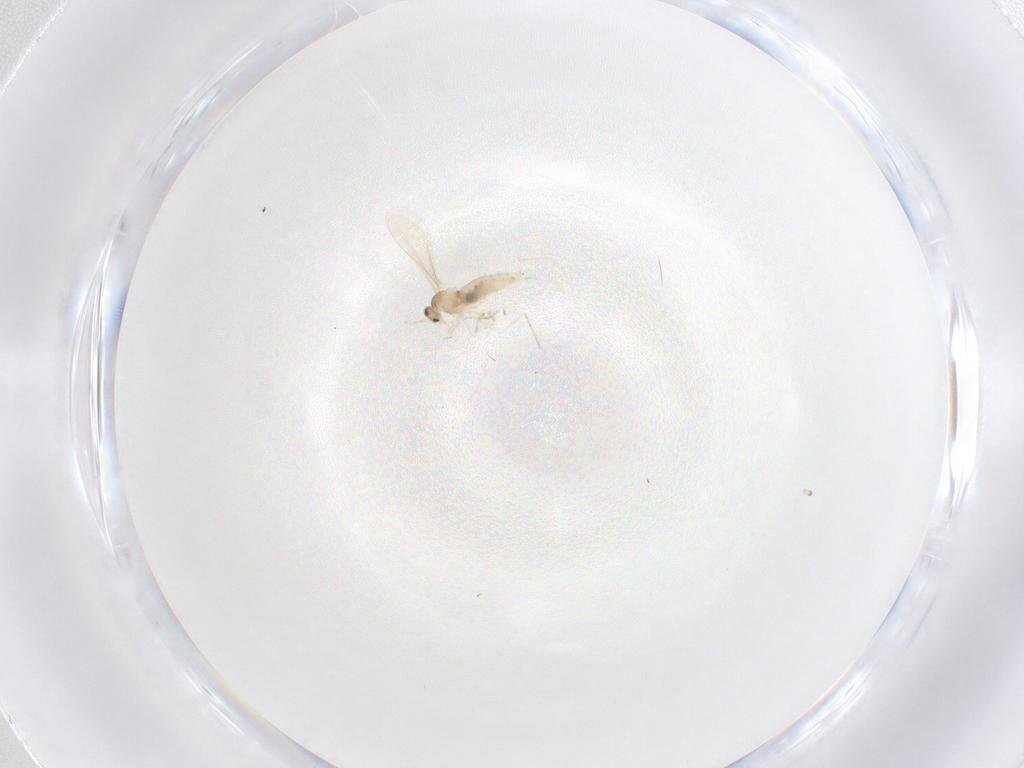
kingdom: Animalia
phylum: Arthropoda
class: Insecta
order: Diptera
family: Cecidomyiidae
